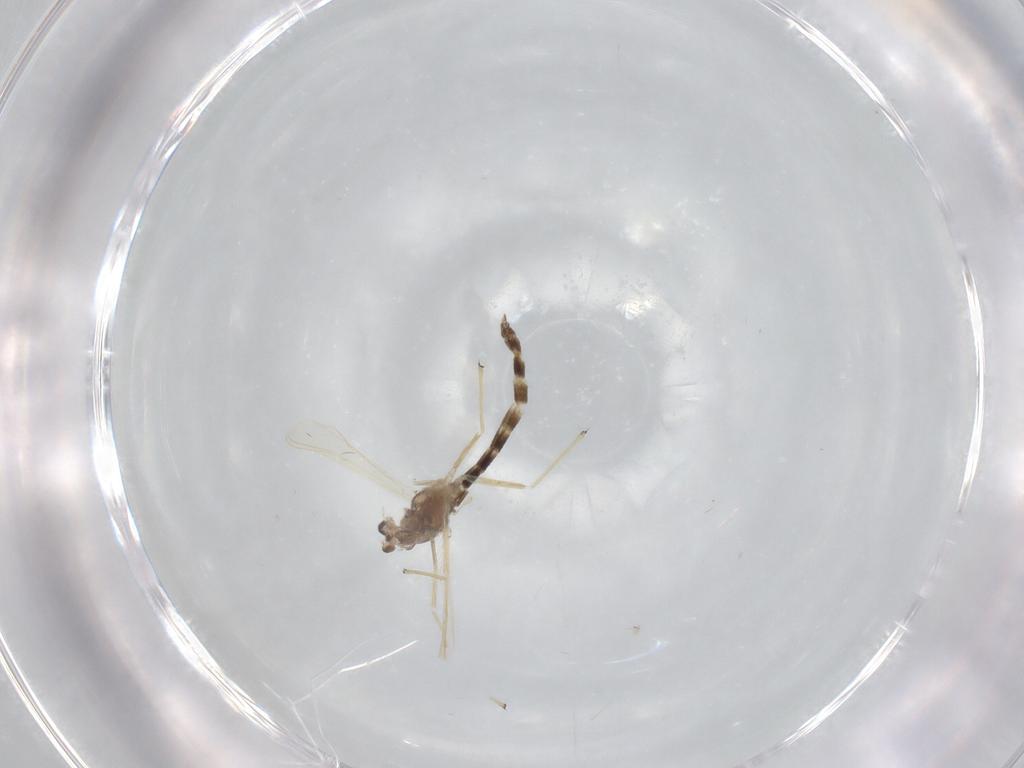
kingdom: Animalia
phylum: Arthropoda
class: Insecta
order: Diptera
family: Chironomidae
